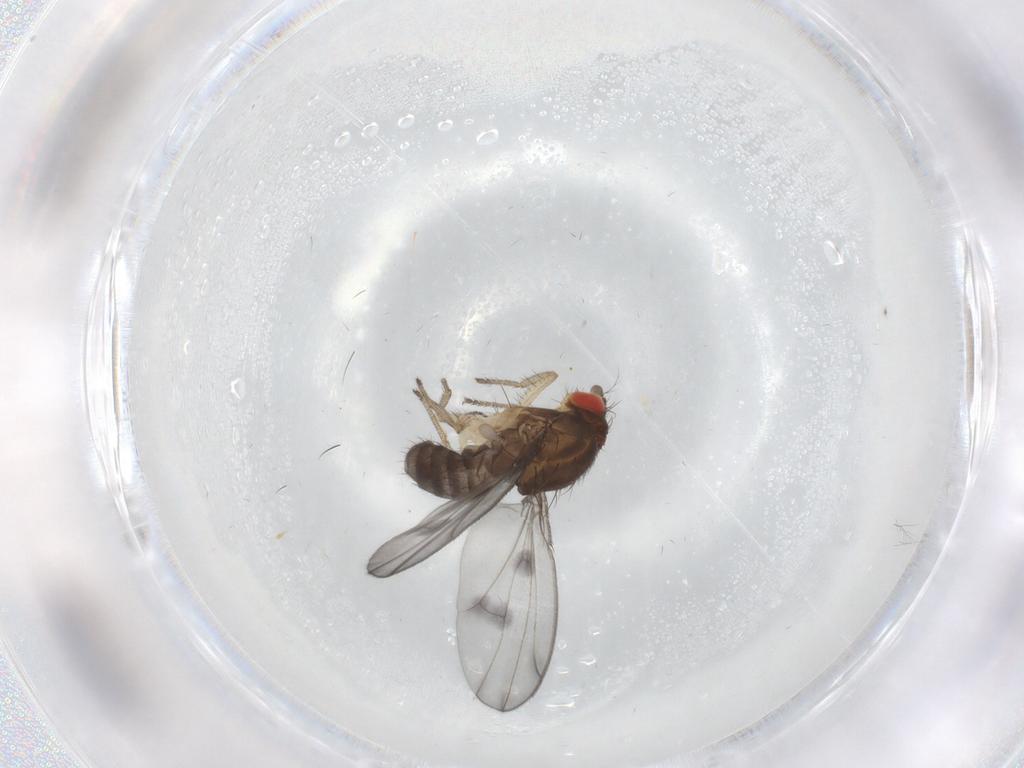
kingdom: Animalia
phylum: Arthropoda
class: Insecta
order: Diptera
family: Drosophilidae
